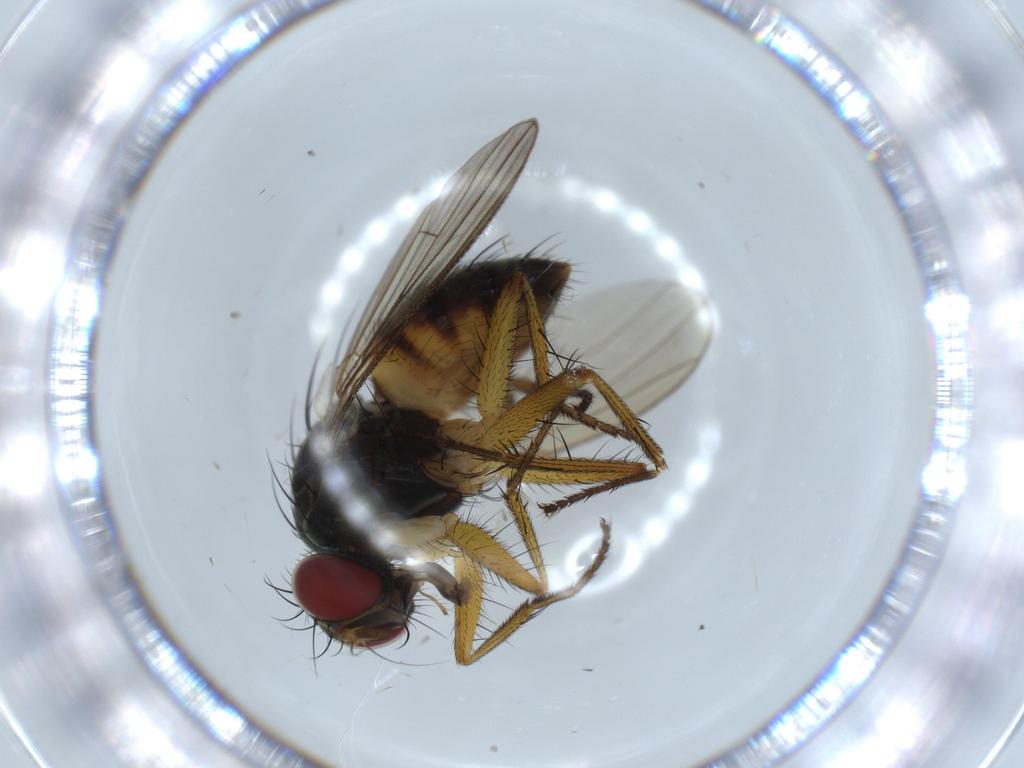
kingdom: Animalia
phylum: Arthropoda
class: Insecta
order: Diptera
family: Muscidae
